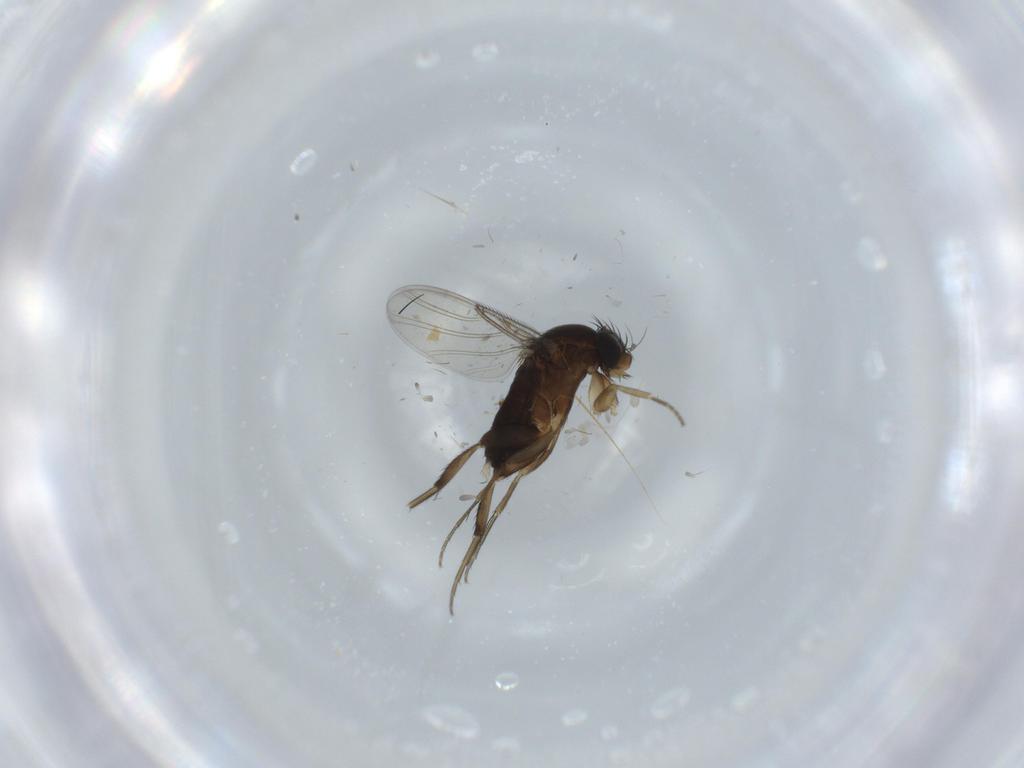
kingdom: Animalia
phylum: Arthropoda
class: Insecta
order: Diptera
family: Phoridae
